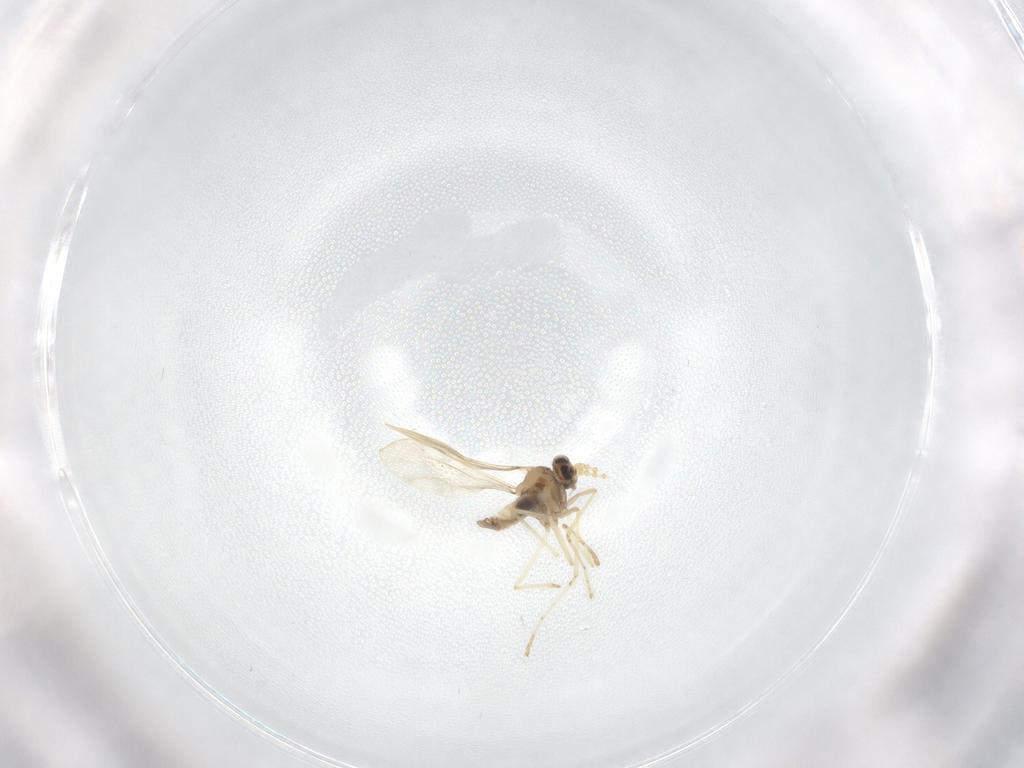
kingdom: Animalia
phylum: Arthropoda
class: Insecta
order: Diptera
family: Cecidomyiidae
